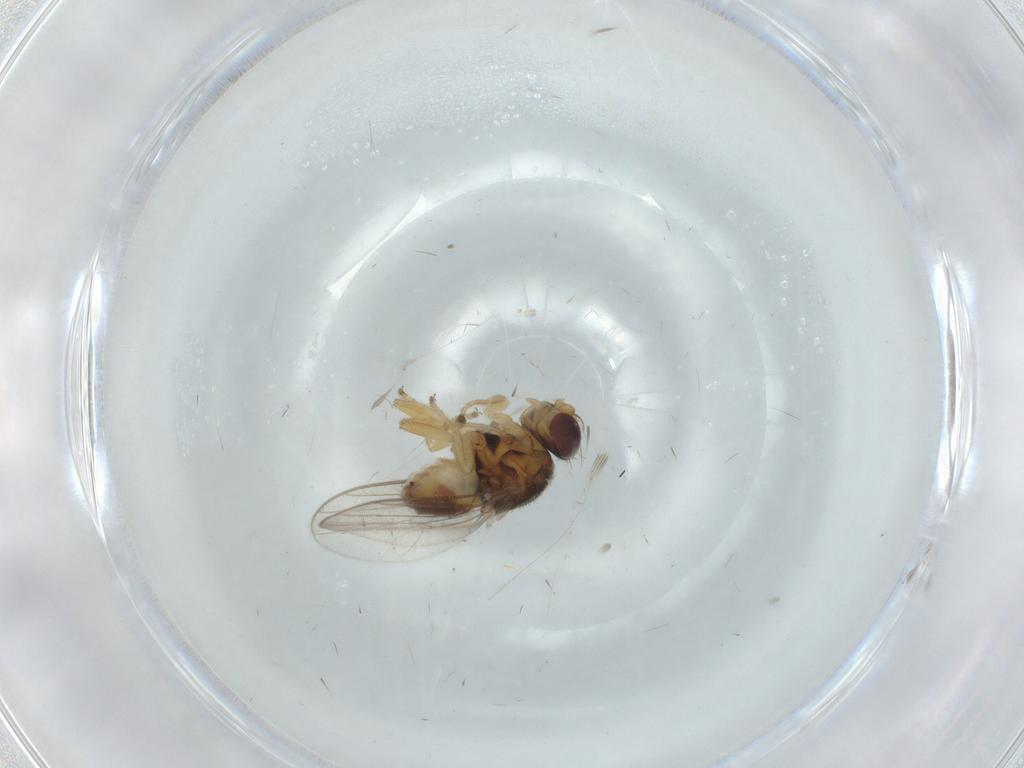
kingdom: Animalia
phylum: Arthropoda
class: Insecta
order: Diptera
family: Chloropidae
